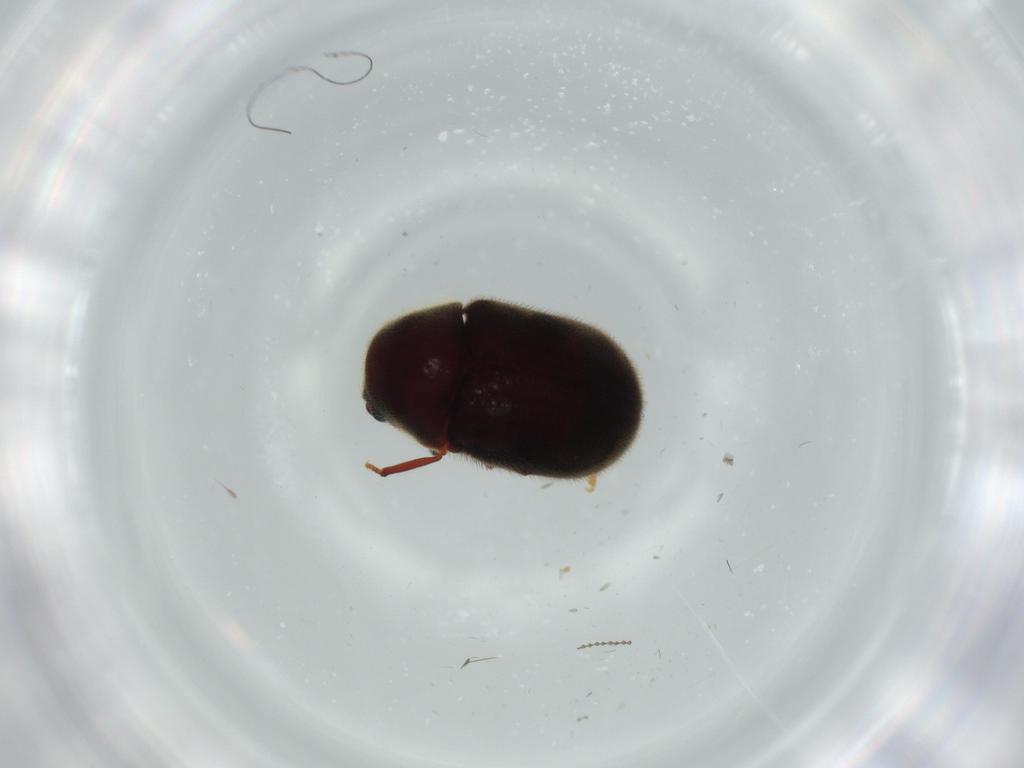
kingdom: Animalia
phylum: Arthropoda
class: Insecta
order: Coleoptera
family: Ptinidae
